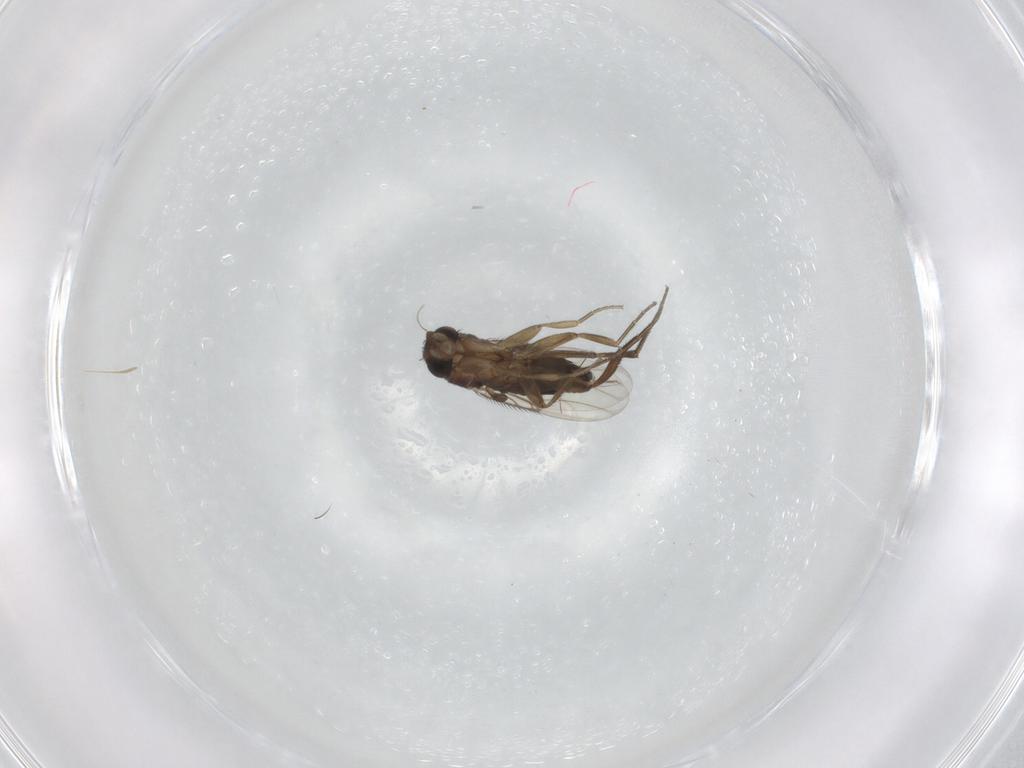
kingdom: Animalia
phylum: Arthropoda
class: Insecta
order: Diptera
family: Phoridae
